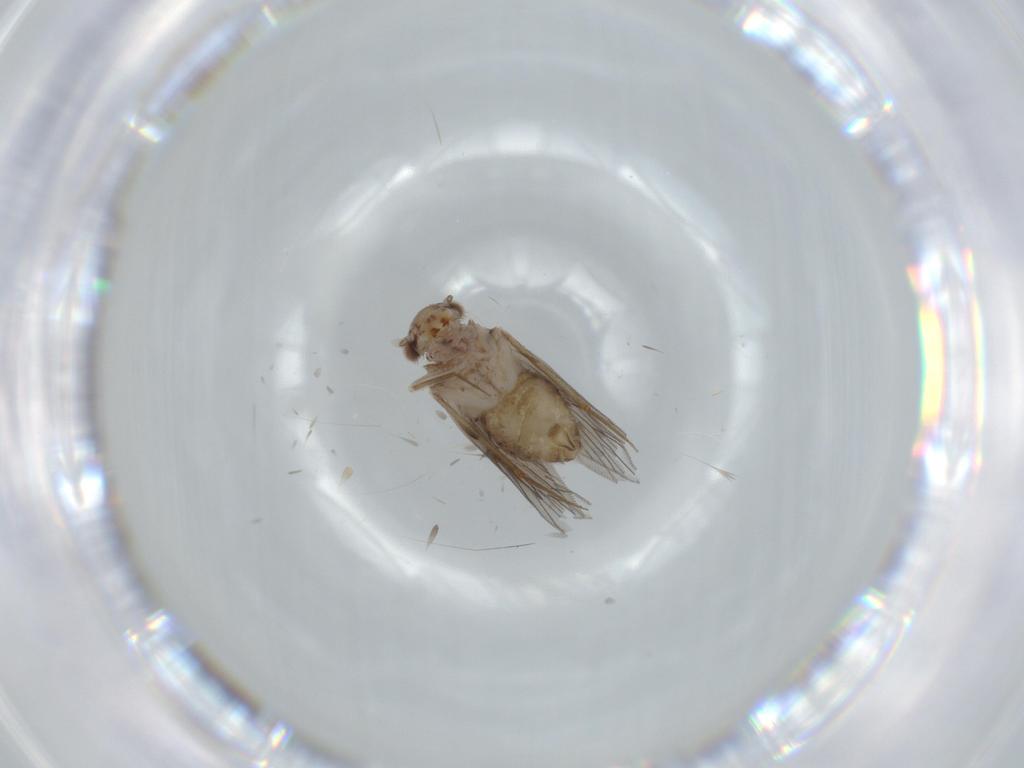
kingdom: Animalia
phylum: Arthropoda
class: Insecta
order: Psocodea
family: Lepidopsocidae
